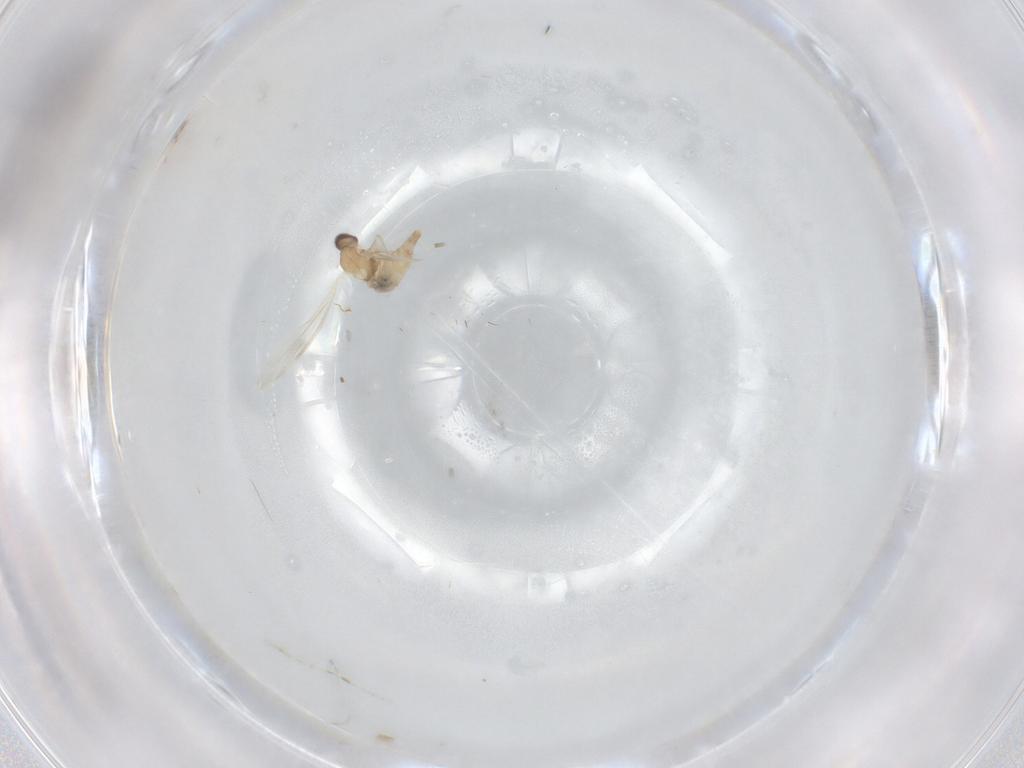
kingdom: Animalia
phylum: Arthropoda
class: Insecta
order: Diptera
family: Cecidomyiidae
